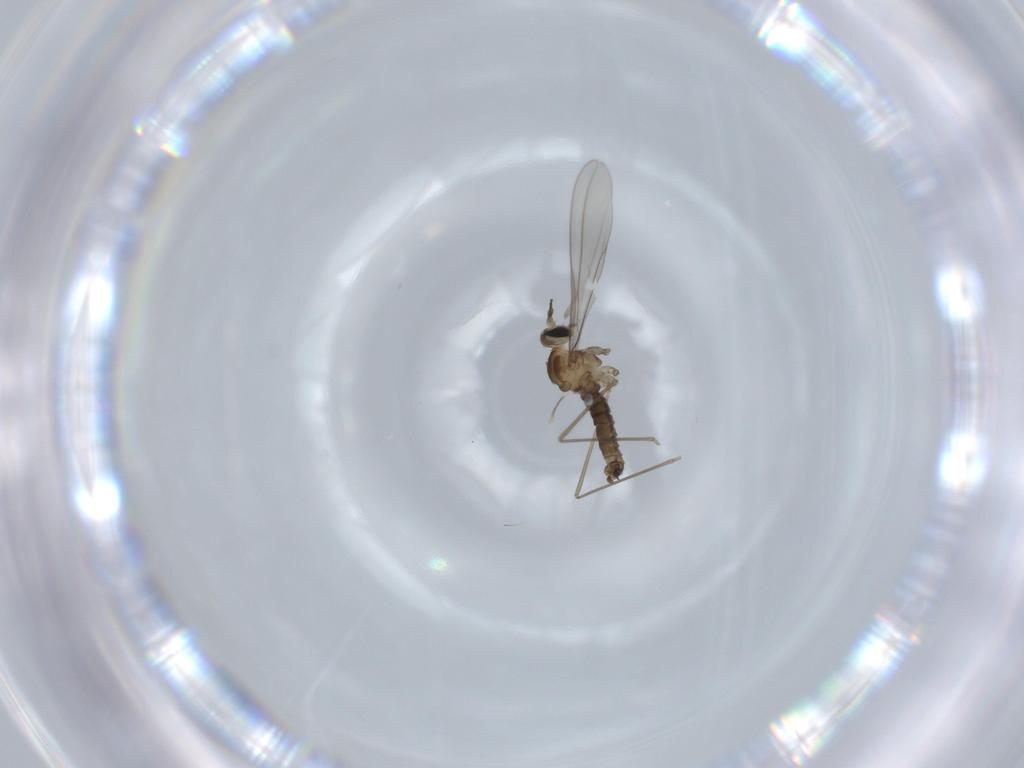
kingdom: Animalia
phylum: Arthropoda
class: Insecta
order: Diptera
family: Cecidomyiidae
